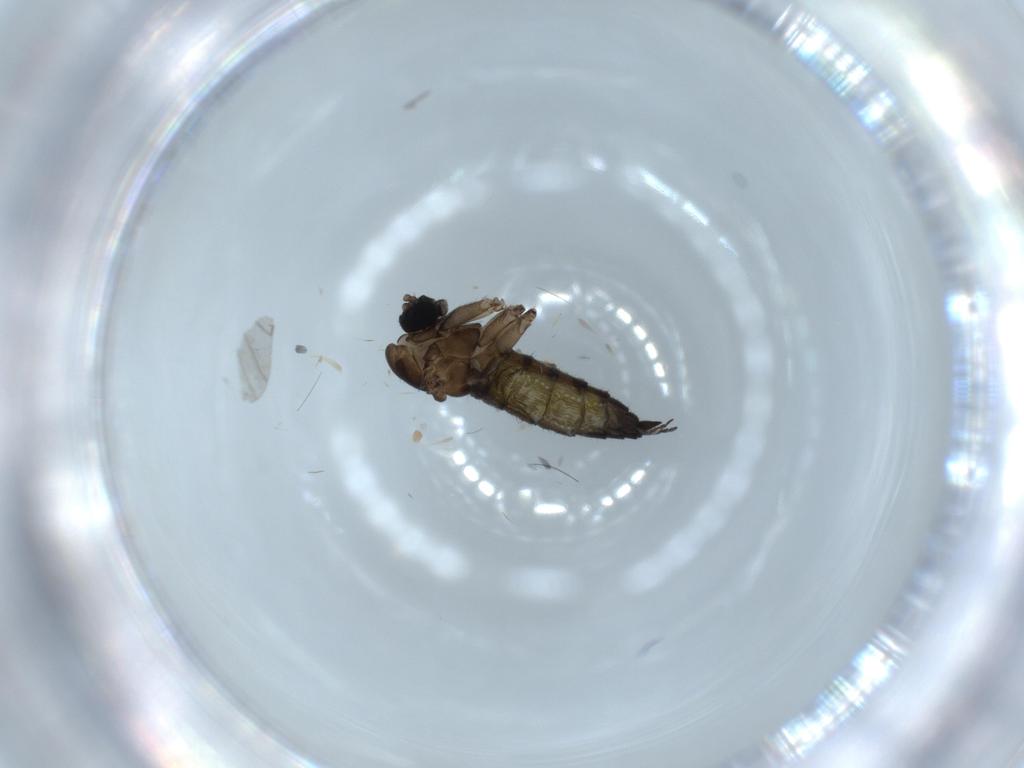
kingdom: Animalia
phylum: Arthropoda
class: Insecta
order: Diptera
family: Sciaridae
